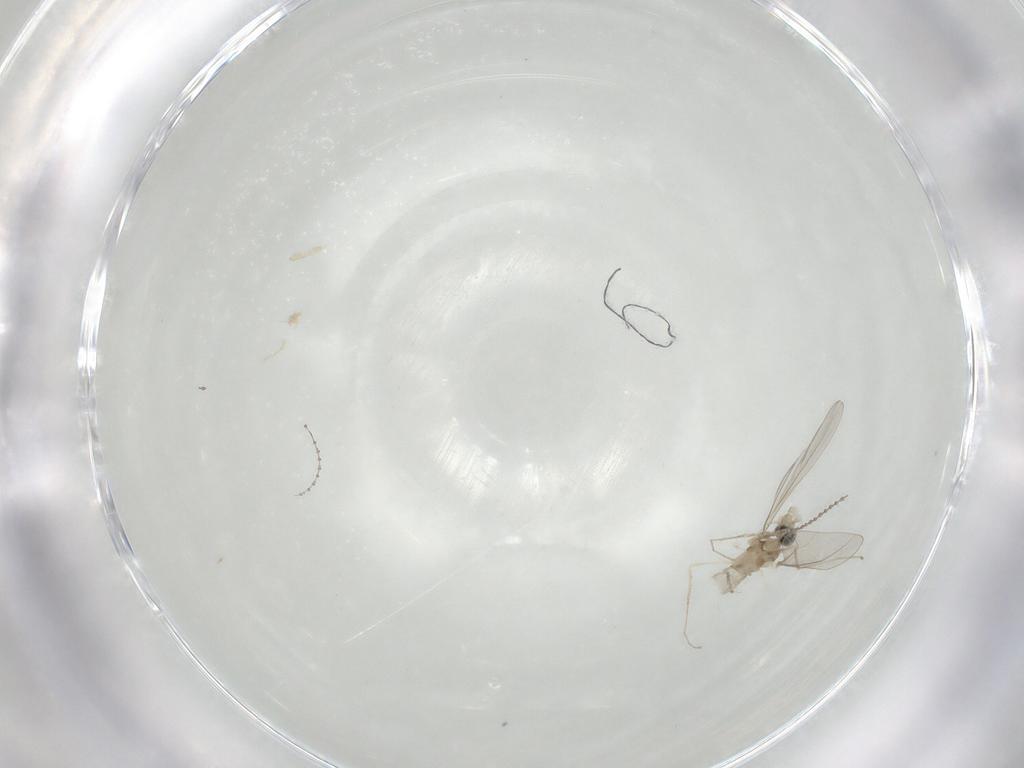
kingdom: Animalia
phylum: Arthropoda
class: Insecta
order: Diptera
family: Cecidomyiidae
